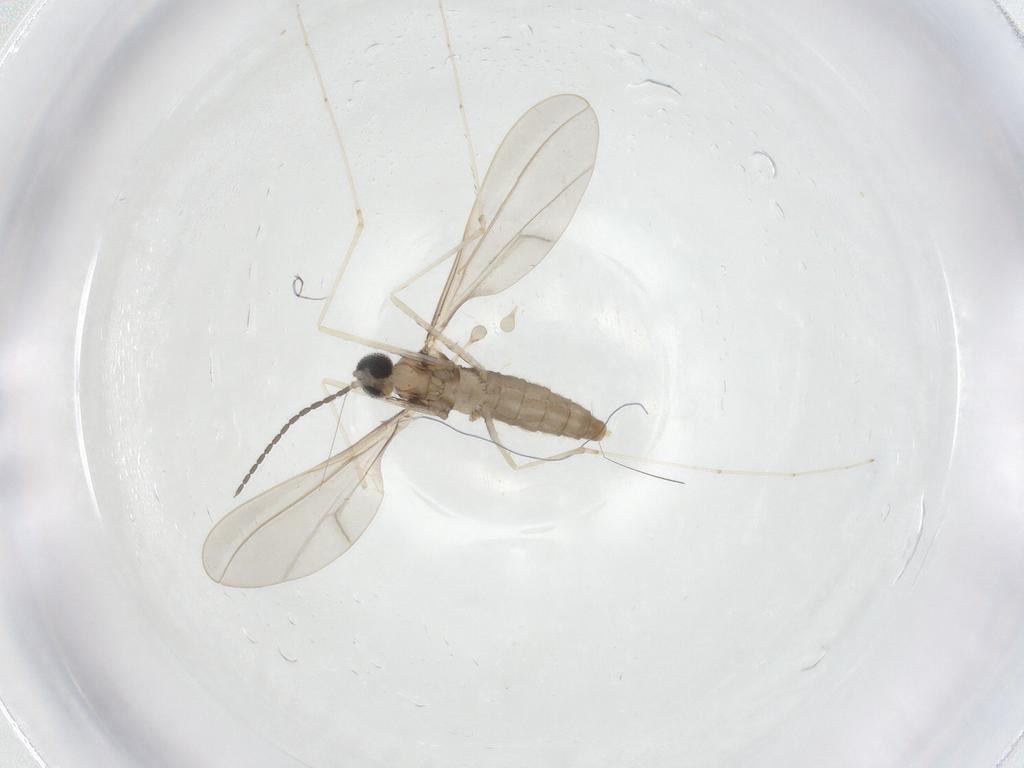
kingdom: Animalia
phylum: Arthropoda
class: Insecta
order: Diptera
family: Cecidomyiidae
